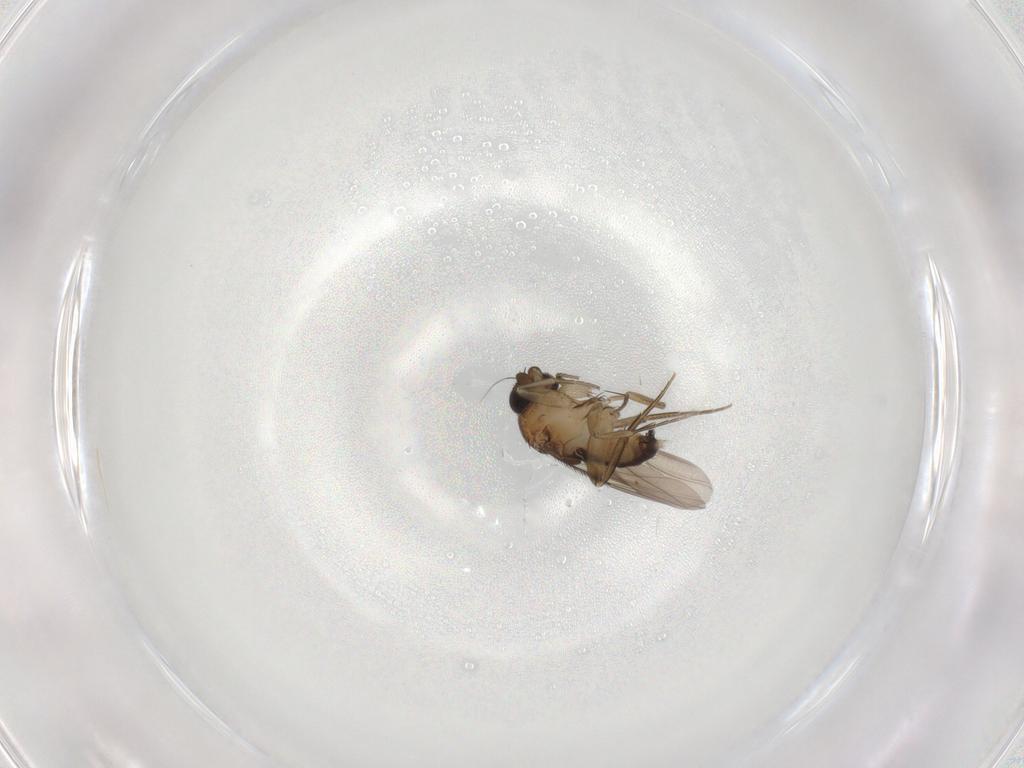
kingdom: Animalia
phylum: Arthropoda
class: Insecta
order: Diptera
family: Phoridae
